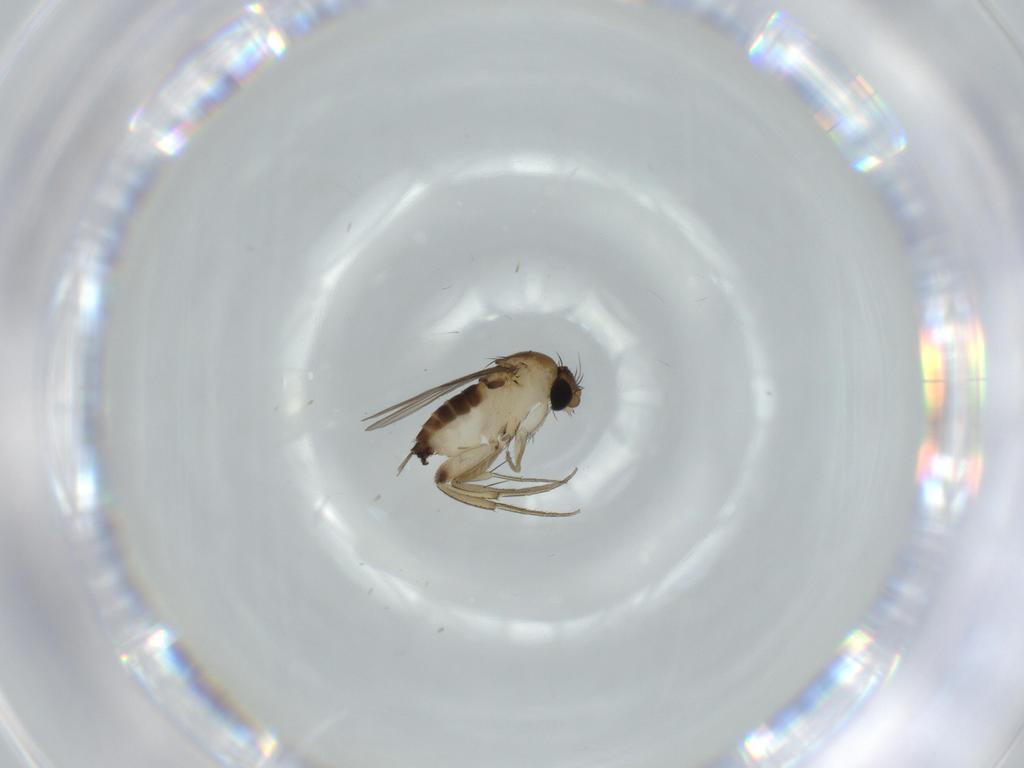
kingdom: Animalia
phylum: Arthropoda
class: Insecta
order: Diptera
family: Phoridae
